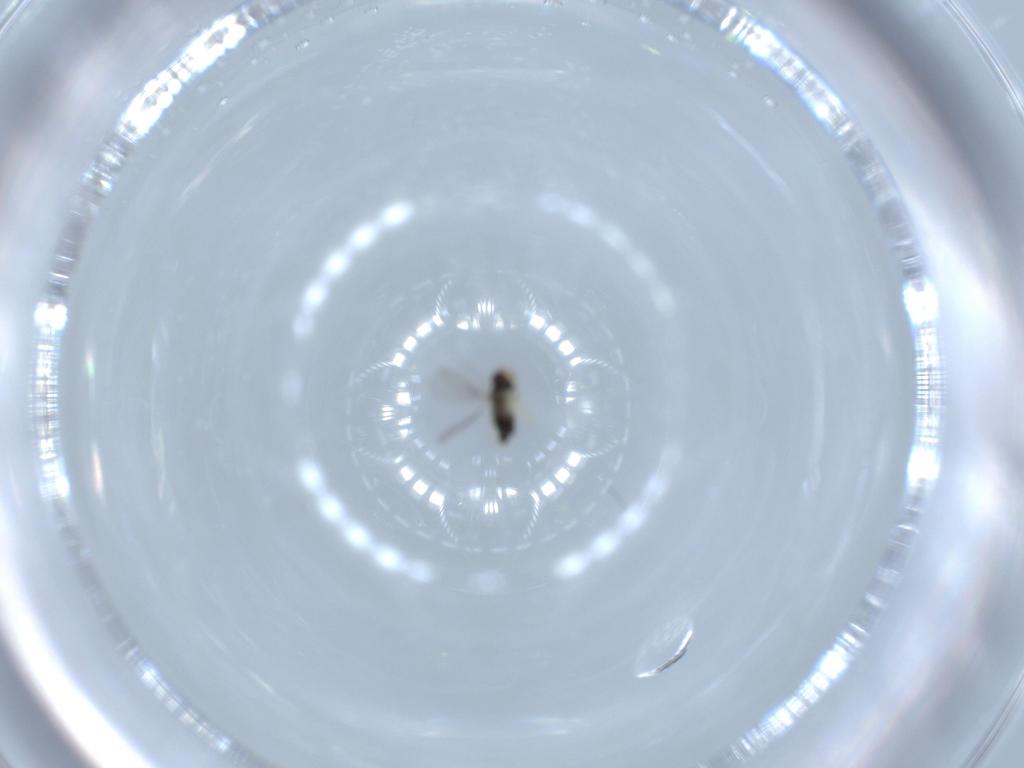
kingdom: Animalia
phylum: Arthropoda
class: Insecta
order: Hymenoptera
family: Aphelinidae
